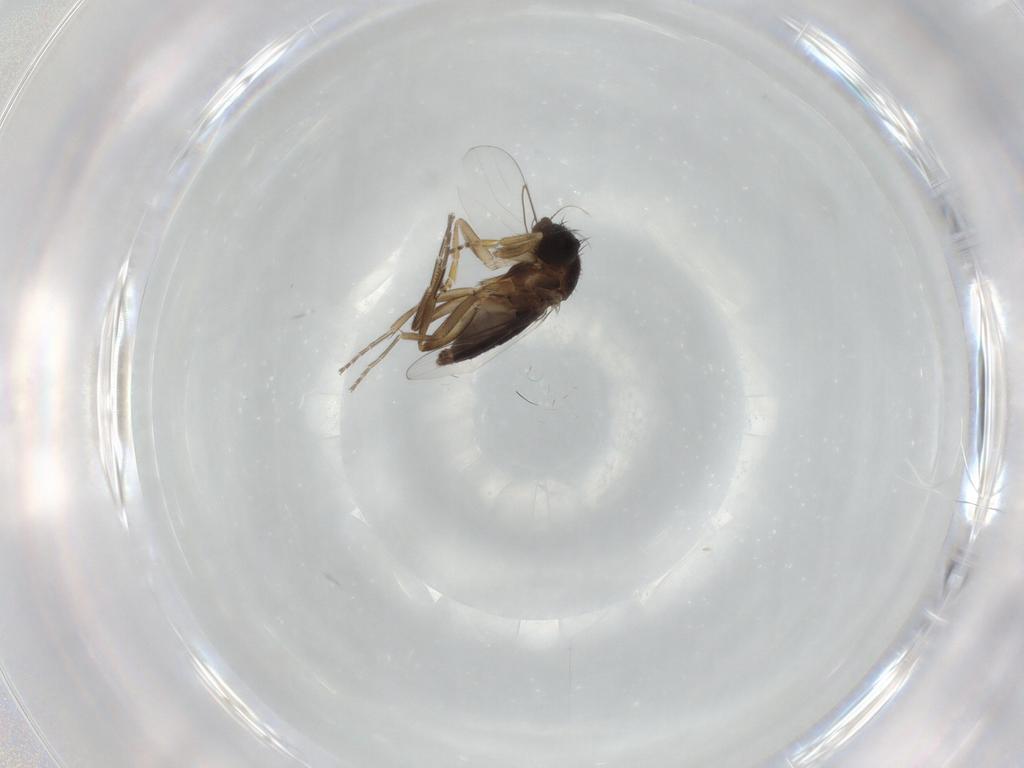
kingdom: Animalia
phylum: Arthropoda
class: Insecta
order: Diptera
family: Phoridae
